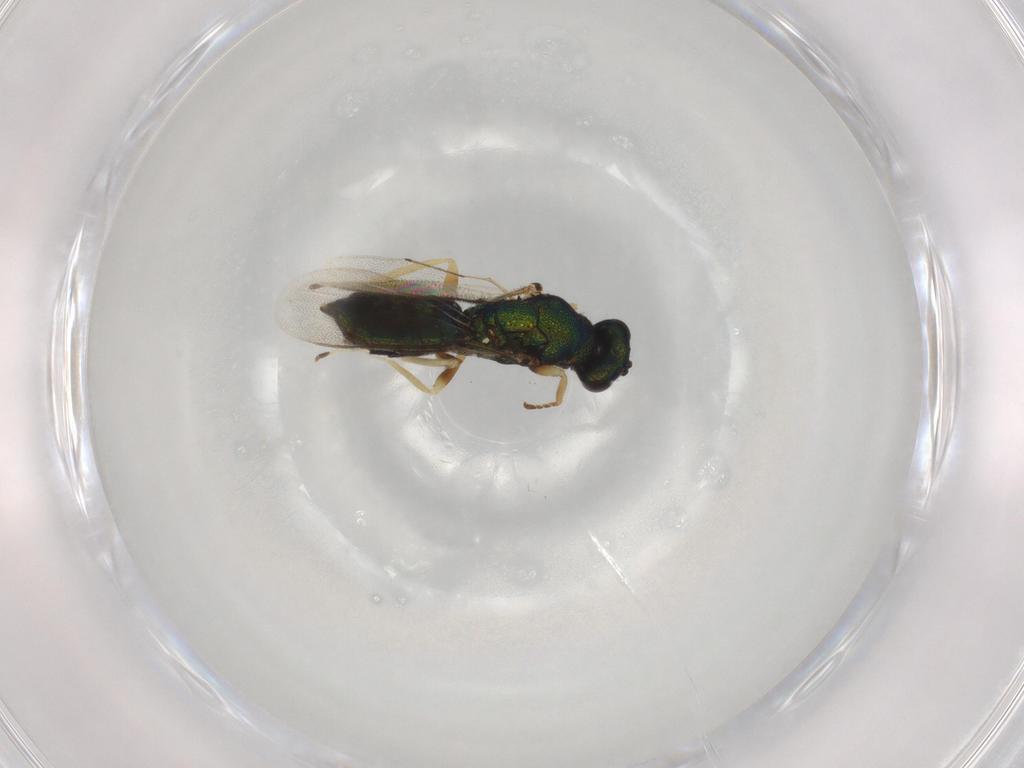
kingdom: Animalia
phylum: Arthropoda
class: Insecta
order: Hymenoptera
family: Eulophidae
